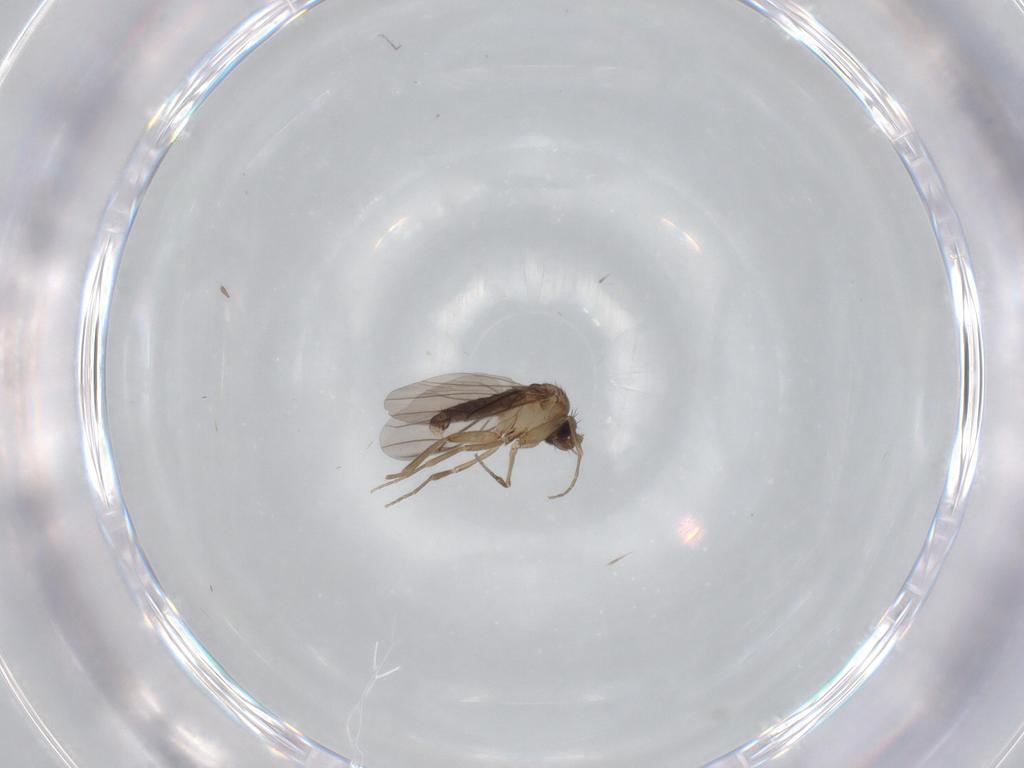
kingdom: Animalia
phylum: Arthropoda
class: Insecta
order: Diptera
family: Phoridae
